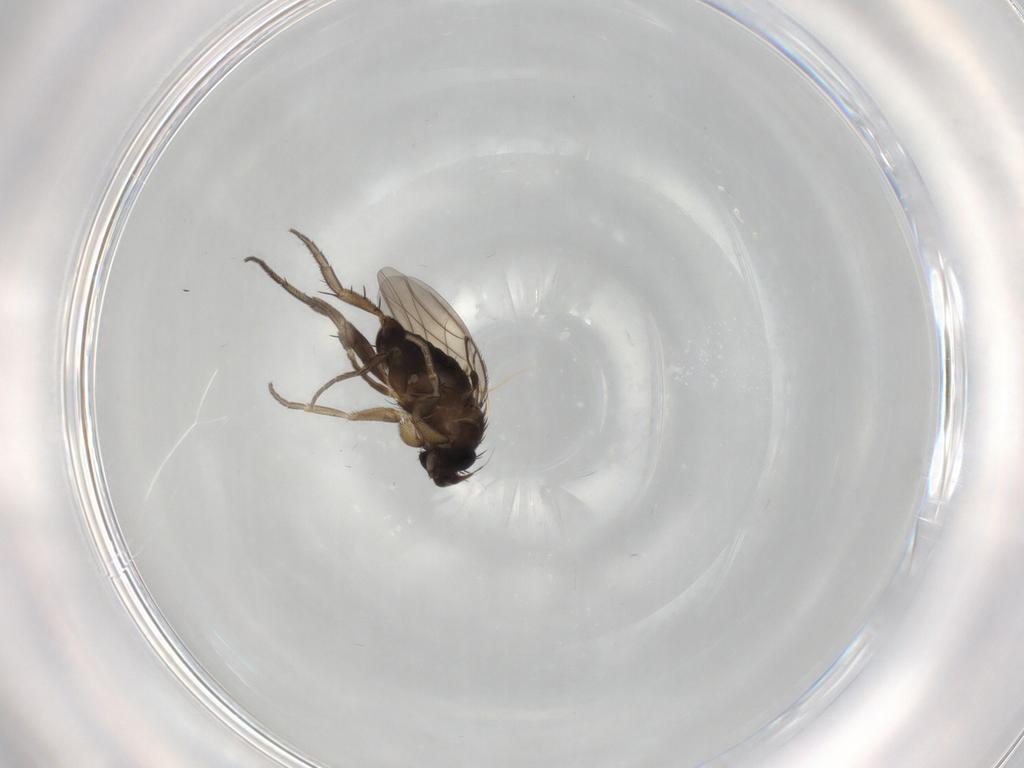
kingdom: Animalia
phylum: Arthropoda
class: Insecta
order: Diptera
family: Phoridae
